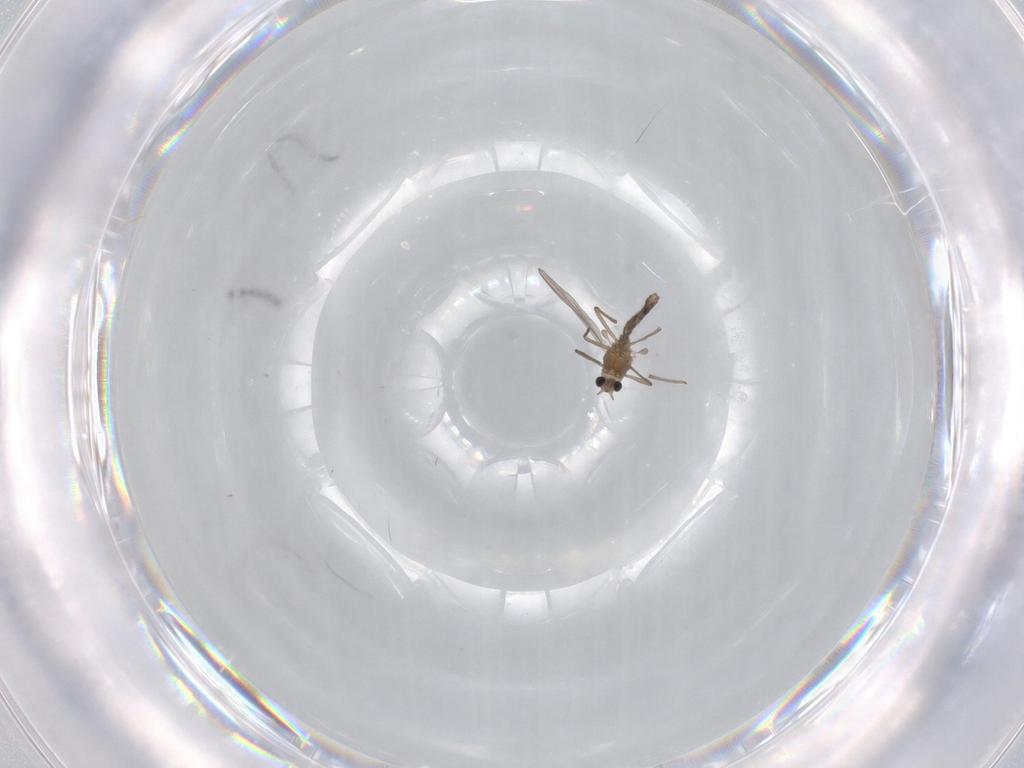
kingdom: Animalia
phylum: Arthropoda
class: Insecta
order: Diptera
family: Chironomidae
